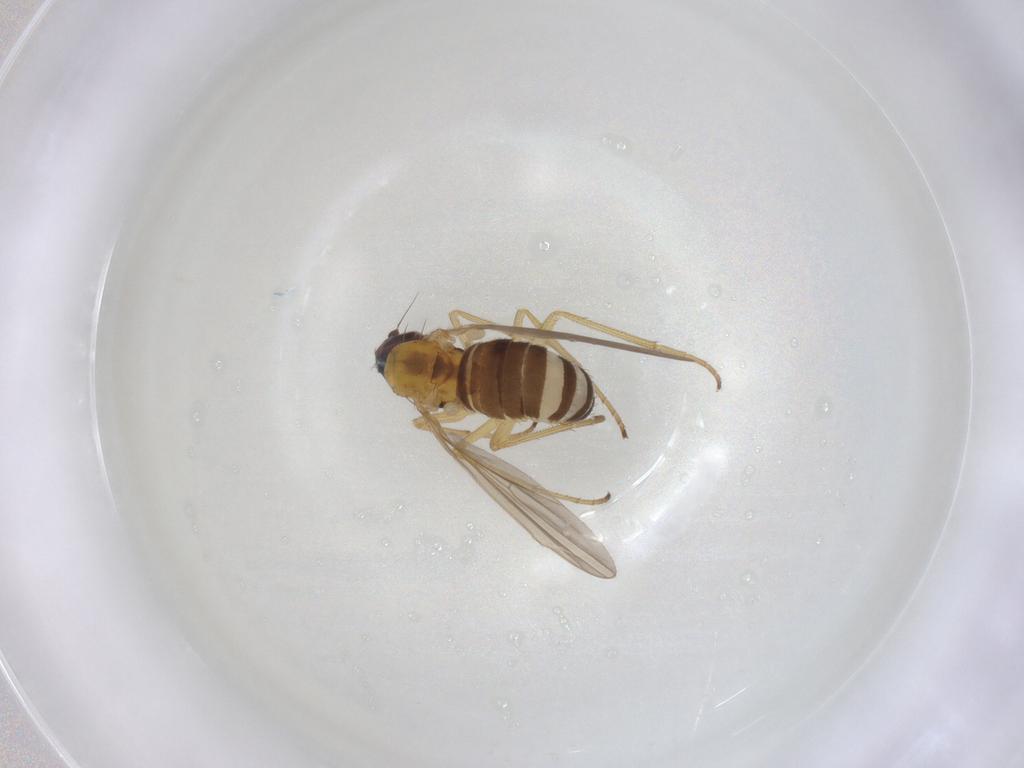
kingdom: Animalia
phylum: Arthropoda
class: Insecta
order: Diptera
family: Dolichopodidae
